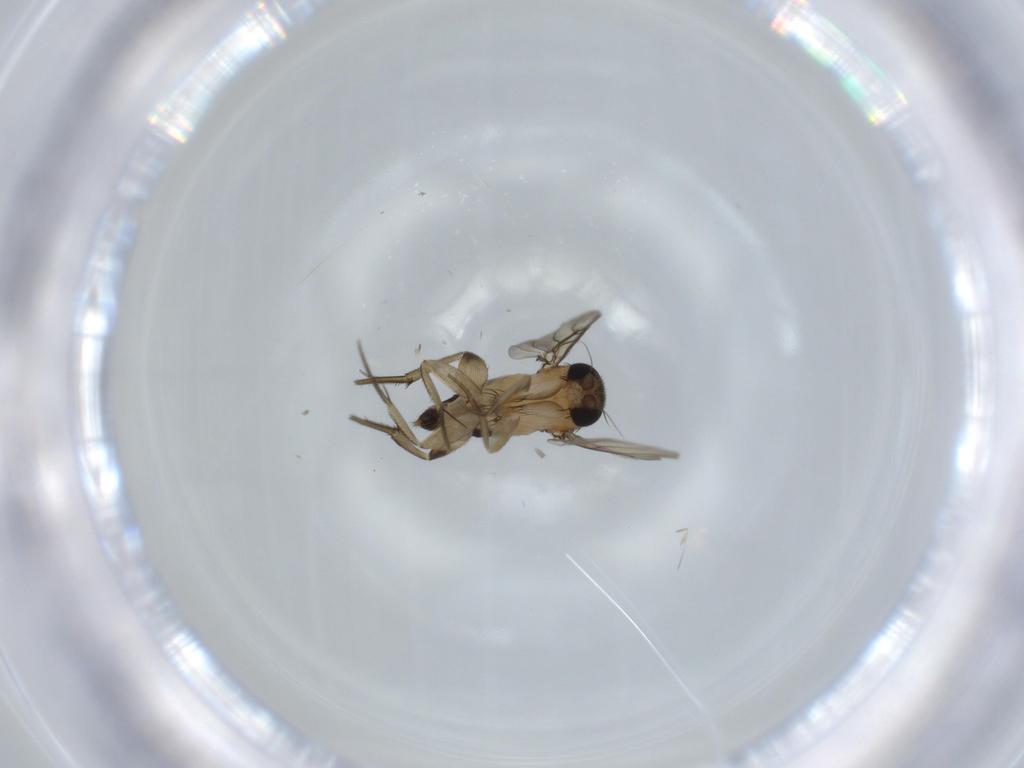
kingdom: Animalia
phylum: Arthropoda
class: Insecta
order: Diptera
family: Phoridae
